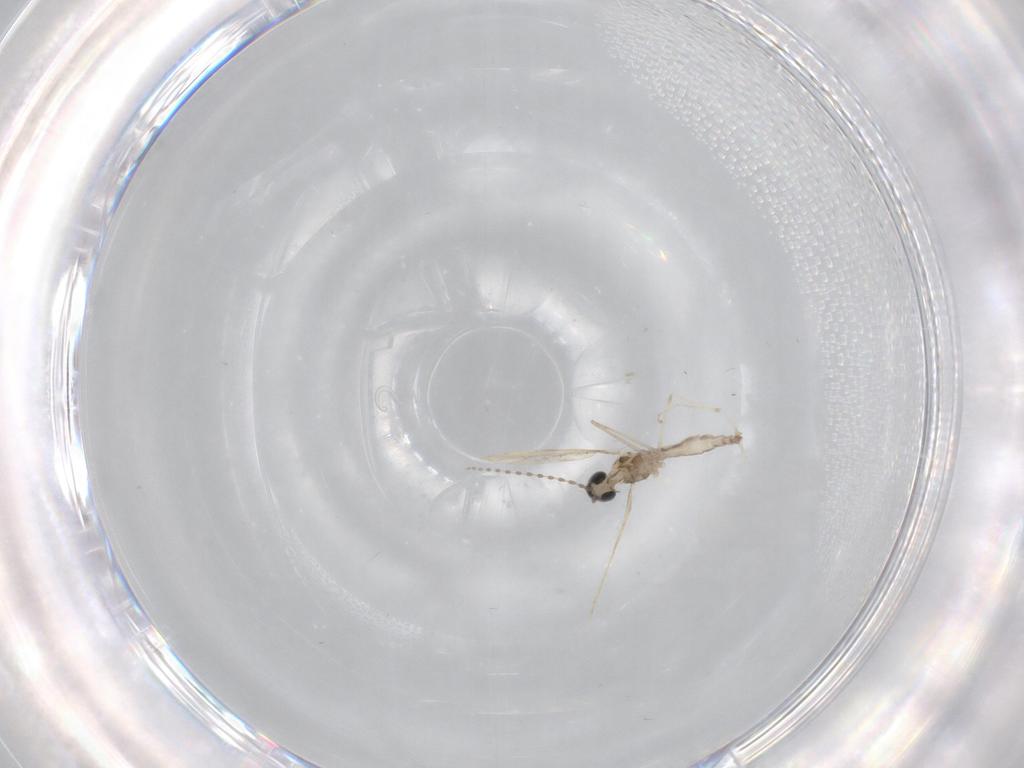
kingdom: Animalia
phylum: Arthropoda
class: Insecta
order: Diptera
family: Cecidomyiidae
